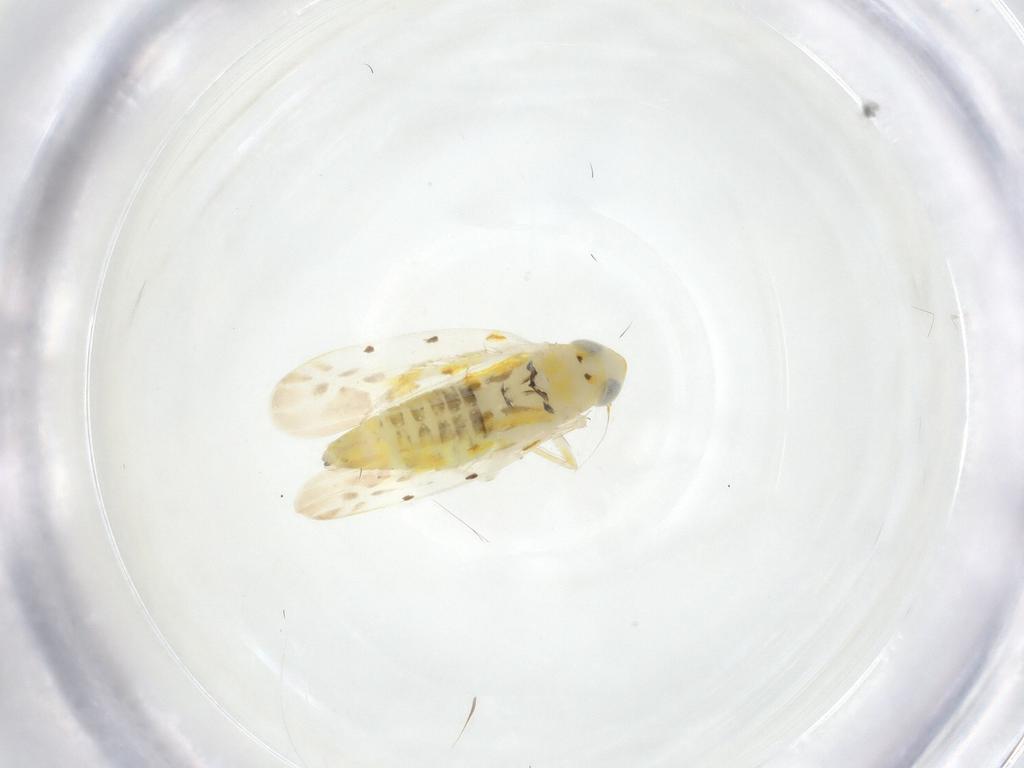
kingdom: Animalia
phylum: Arthropoda
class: Insecta
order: Hemiptera
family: Cicadellidae
